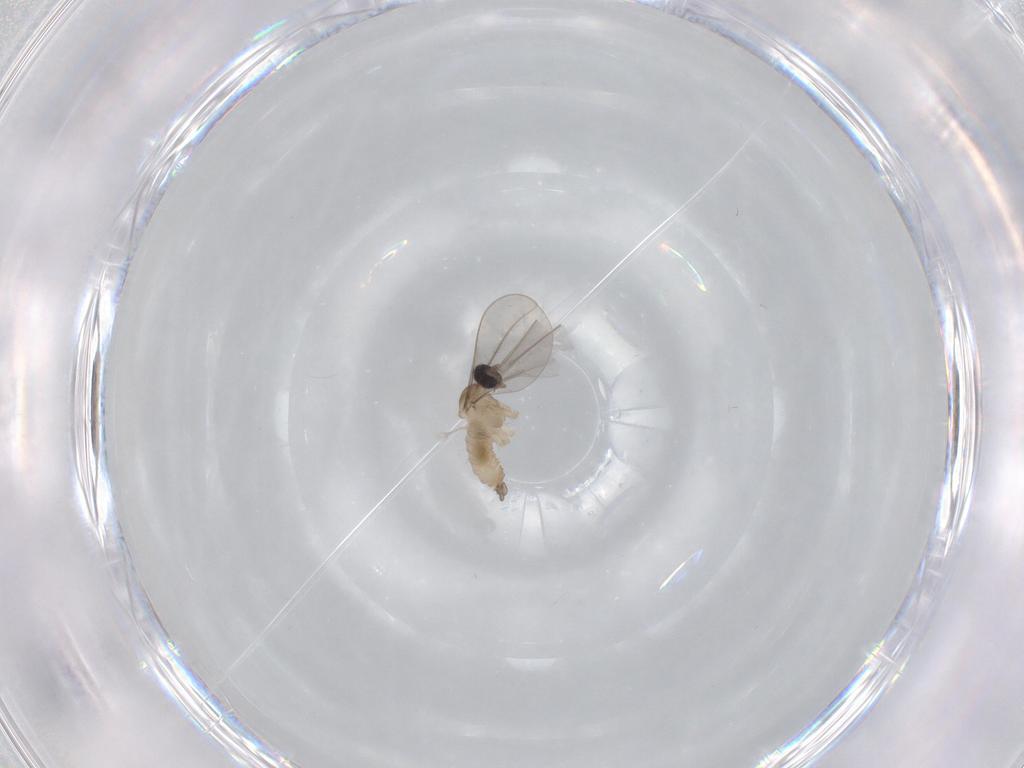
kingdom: Animalia
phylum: Arthropoda
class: Insecta
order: Diptera
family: Cecidomyiidae
